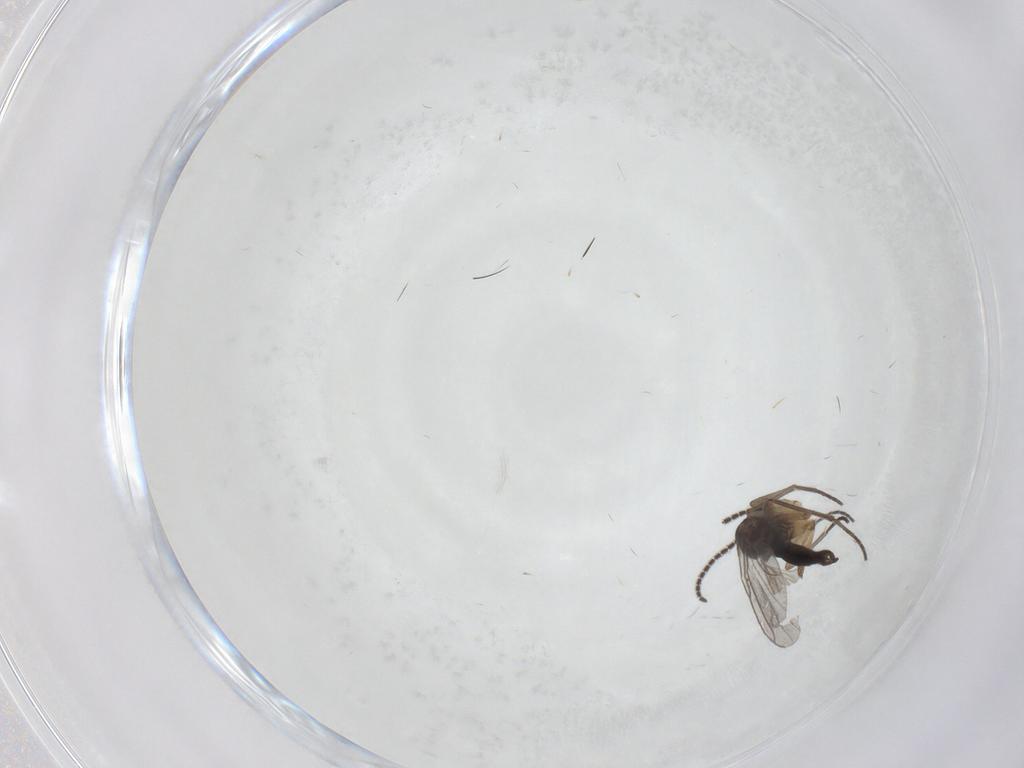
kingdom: Animalia
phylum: Arthropoda
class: Insecta
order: Diptera
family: Sciaridae
